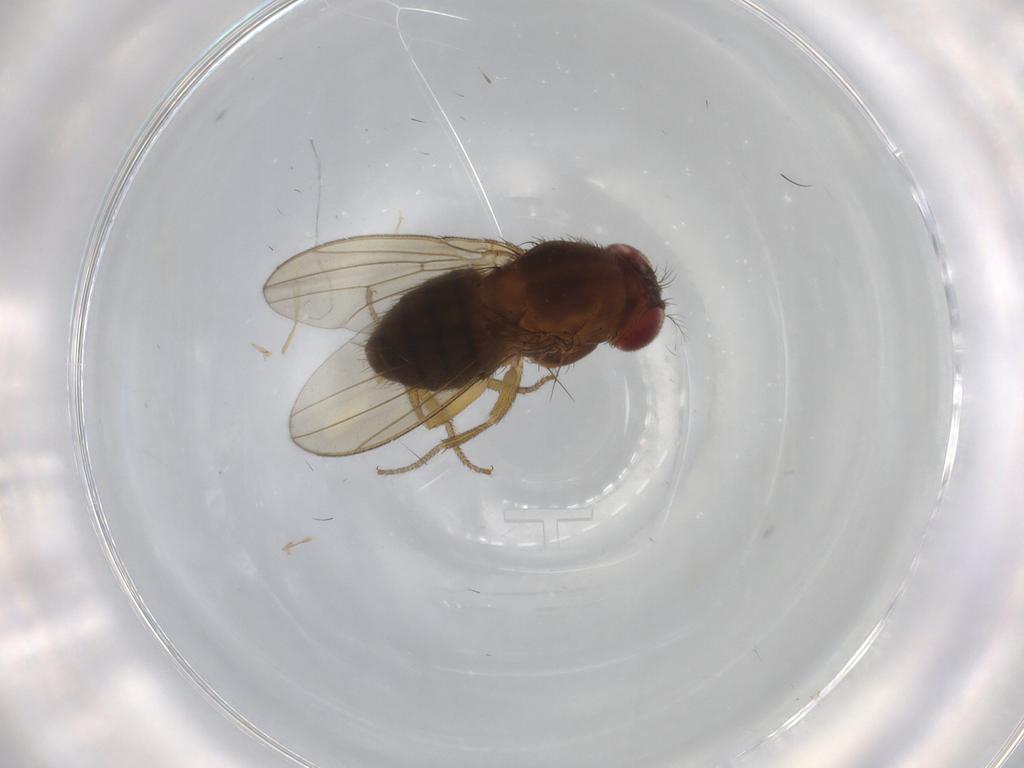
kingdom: Animalia
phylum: Arthropoda
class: Insecta
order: Diptera
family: Drosophilidae
